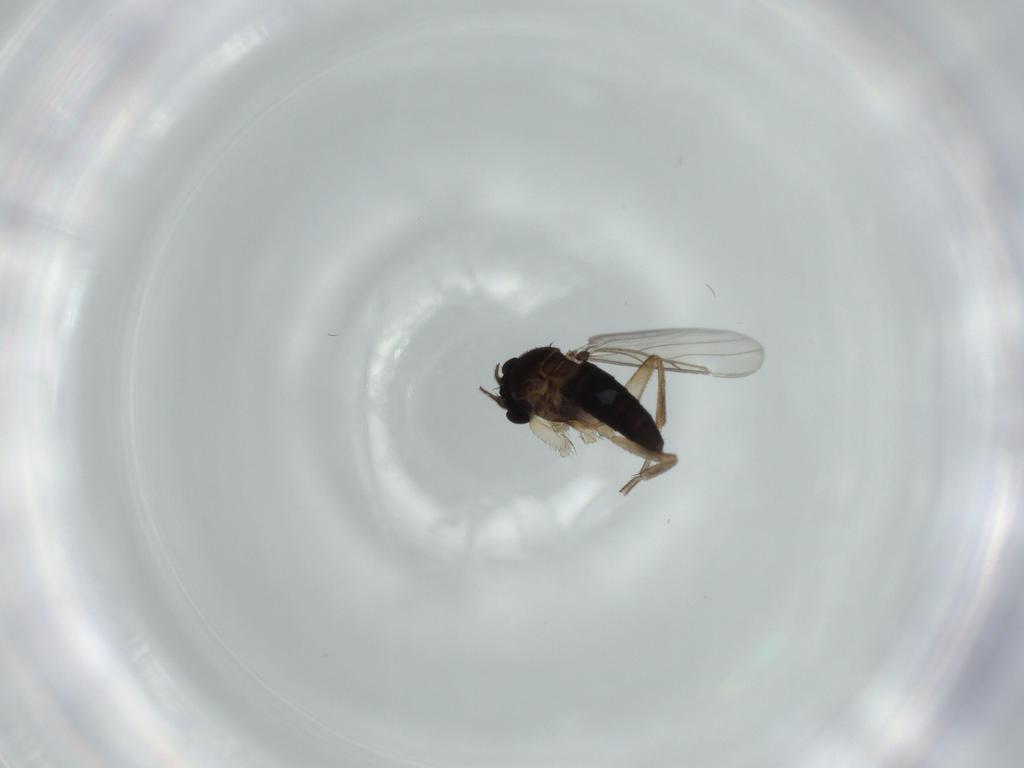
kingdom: Animalia
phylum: Arthropoda
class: Insecta
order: Diptera
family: Phoridae
